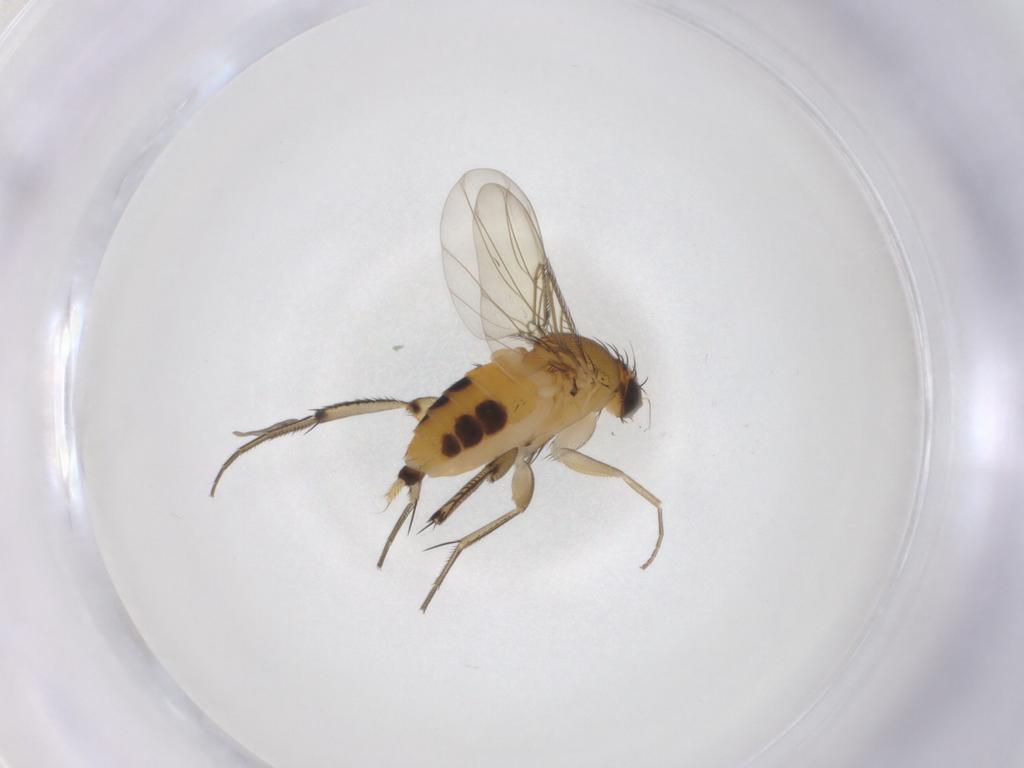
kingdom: Animalia
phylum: Arthropoda
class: Insecta
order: Diptera
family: Phoridae
